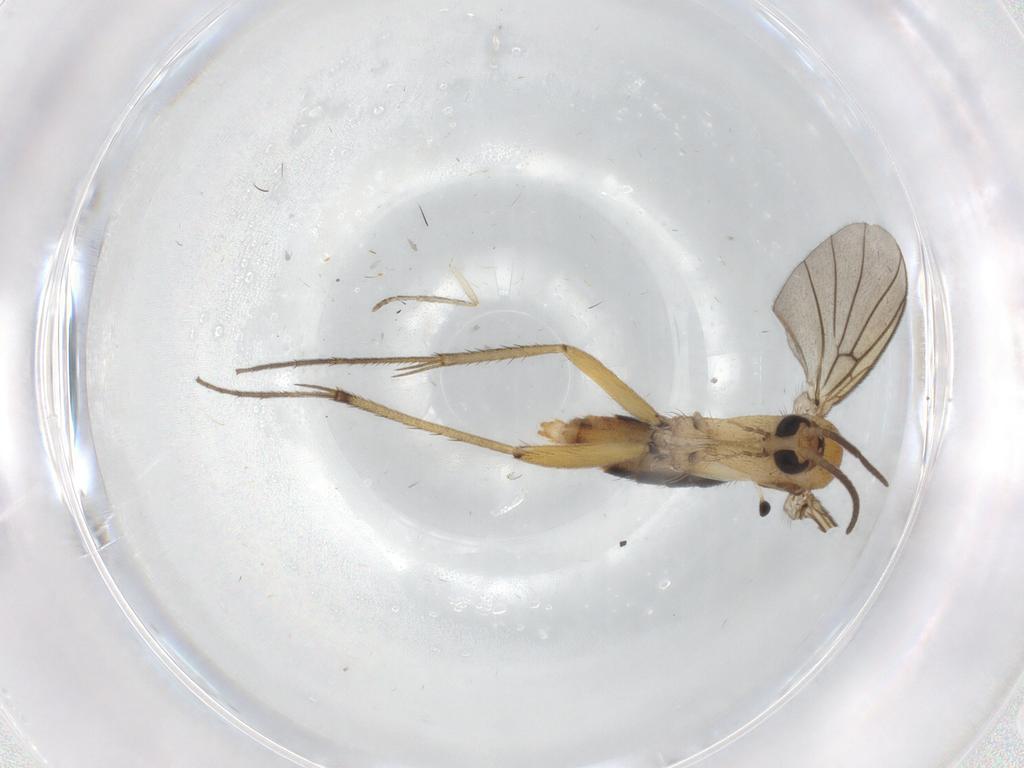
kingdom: Animalia
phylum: Arthropoda
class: Insecta
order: Diptera
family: Mycetophilidae
